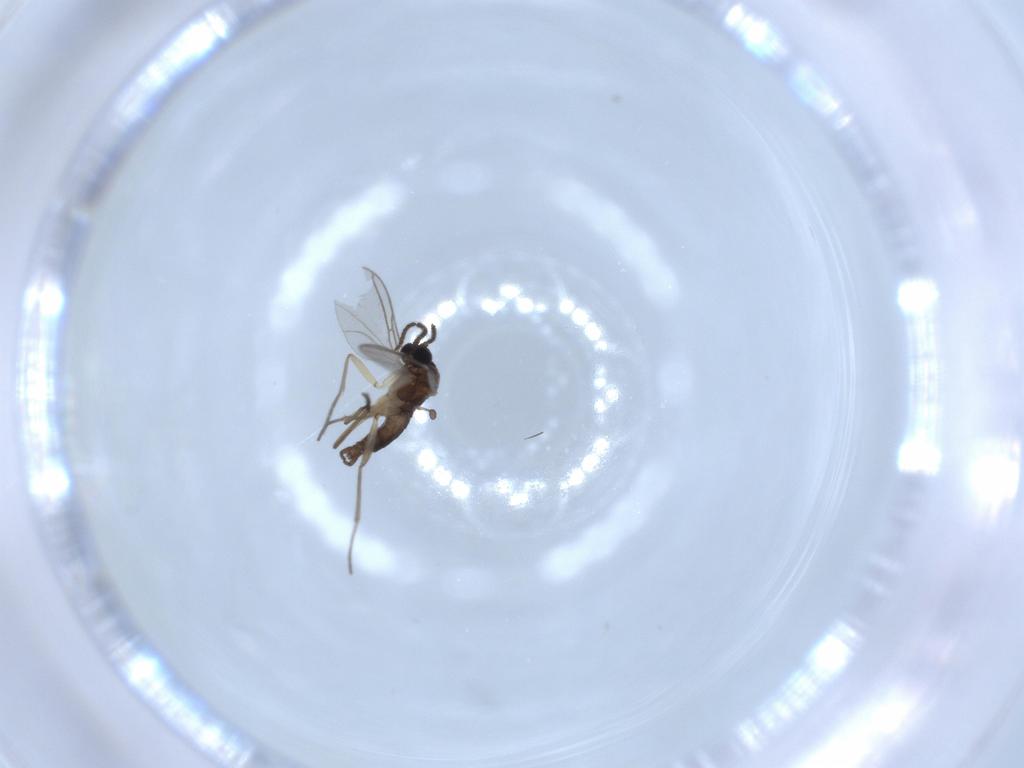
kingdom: Animalia
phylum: Arthropoda
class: Insecta
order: Diptera
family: Sciaridae
